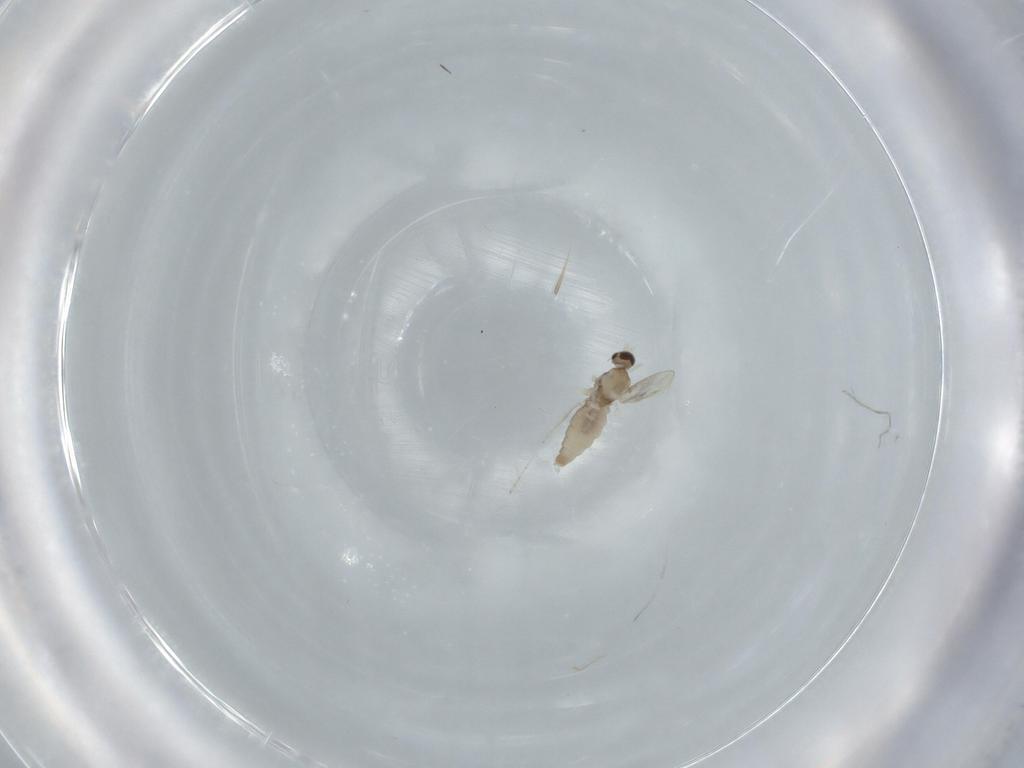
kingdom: Animalia
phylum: Arthropoda
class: Insecta
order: Diptera
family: Cecidomyiidae
